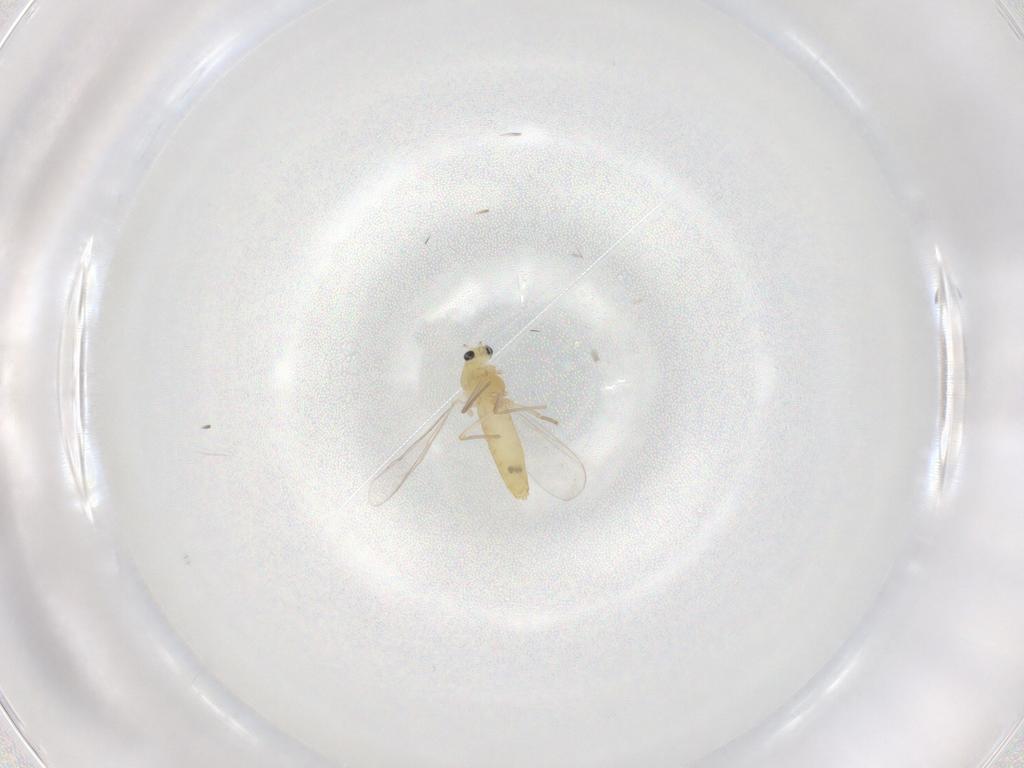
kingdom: Animalia
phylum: Arthropoda
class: Insecta
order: Diptera
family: Chironomidae
